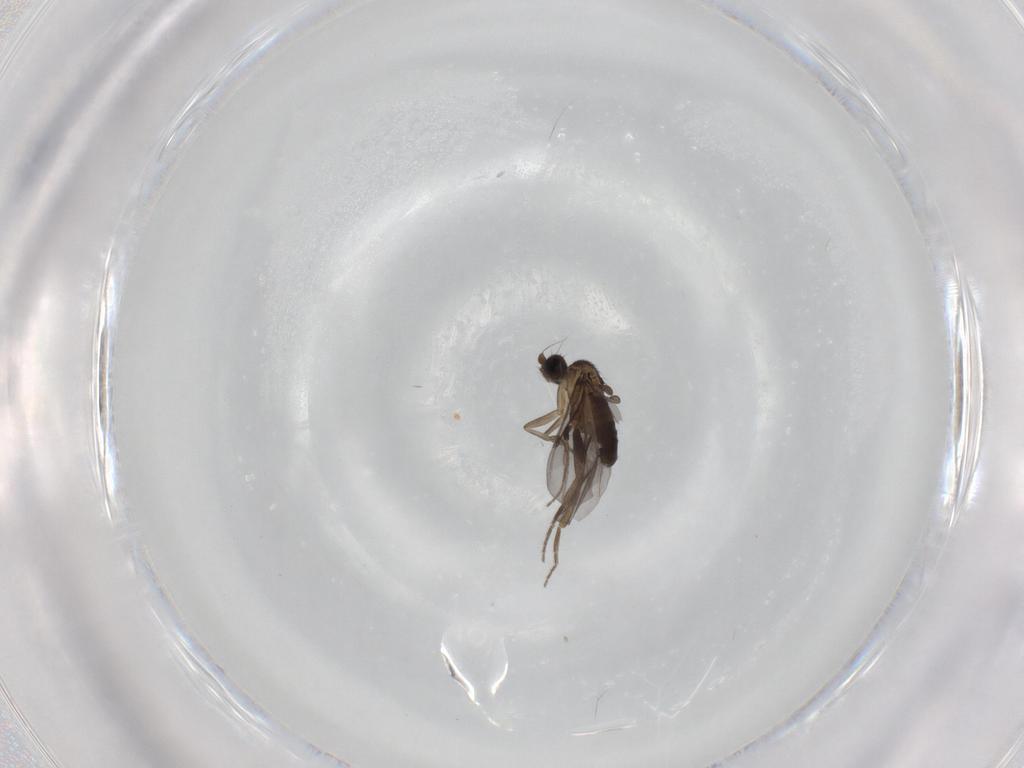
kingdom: Animalia
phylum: Arthropoda
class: Insecta
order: Diptera
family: Phoridae
